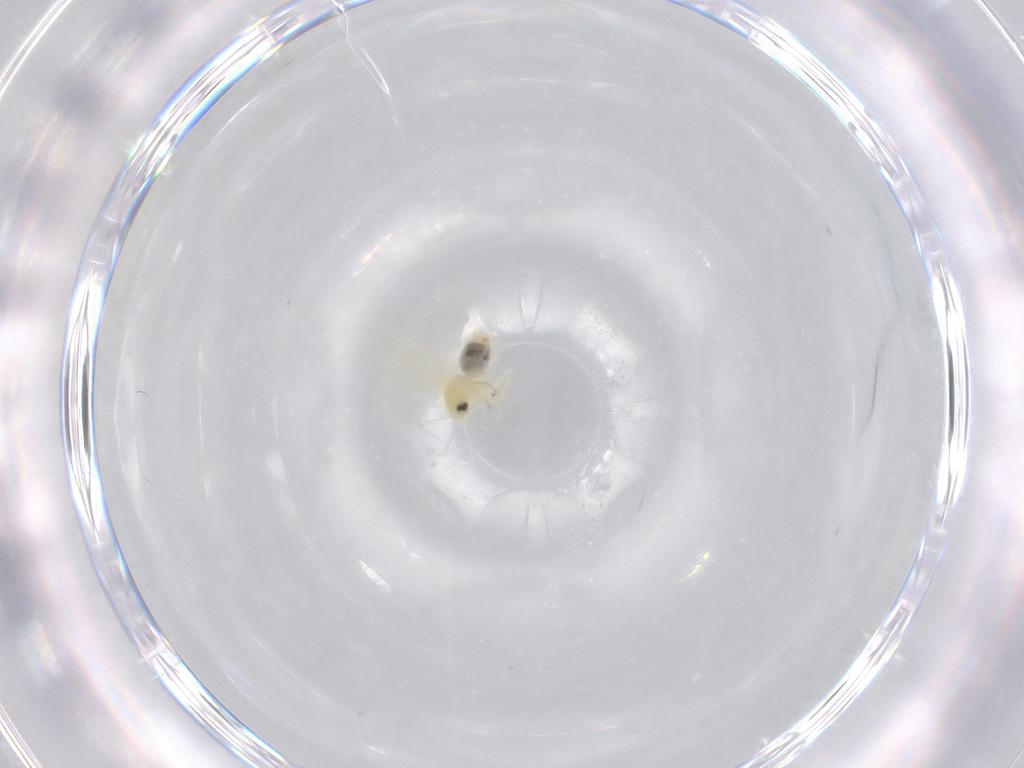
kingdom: Animalia
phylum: Arthropoda
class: Insecta
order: Hemiptera
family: Aleyrodidae
